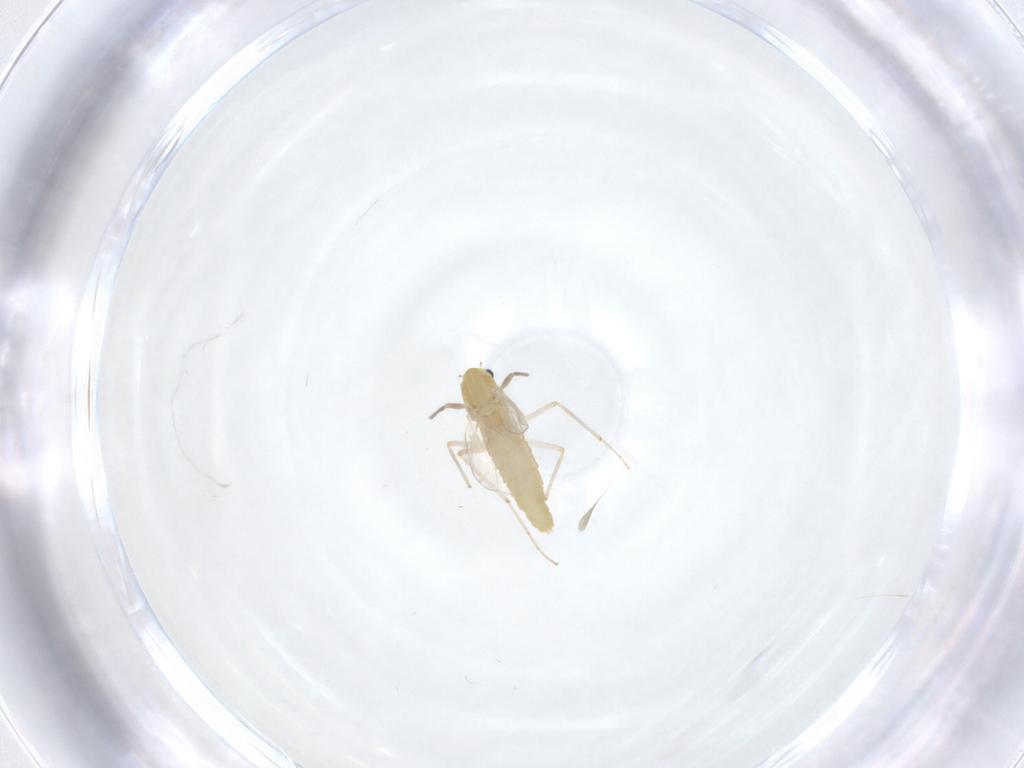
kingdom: Animalia
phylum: Arthropoda
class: Insecta
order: Diptera
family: Chironomidae
